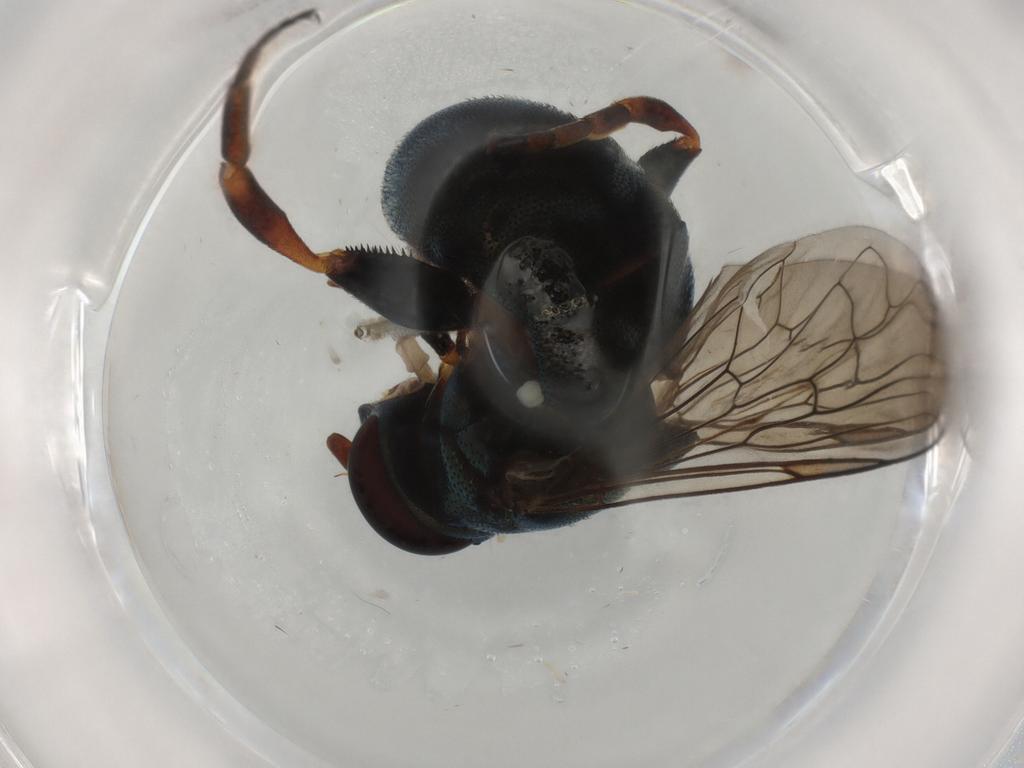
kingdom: Animalia
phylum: Arthropoda
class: Insecta
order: Diptera
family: Syrphidae
